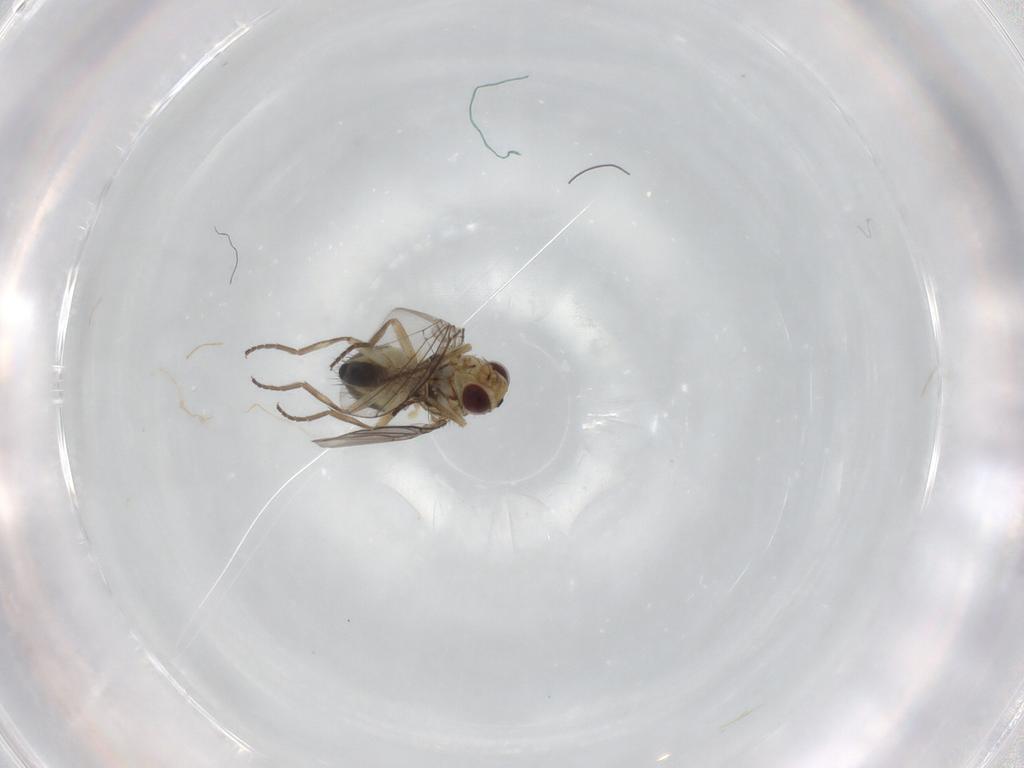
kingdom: Animalia
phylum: Arthropoda
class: Insecta
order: Diptera
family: Agromyzidae
